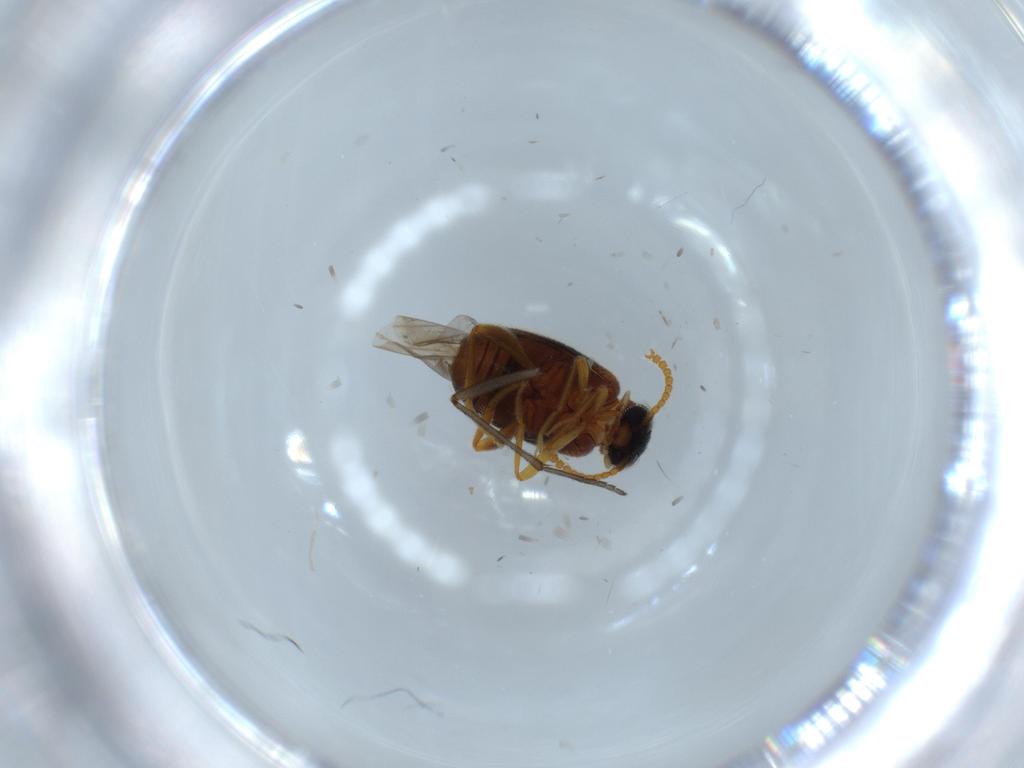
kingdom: Animalia
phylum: Arthropoda
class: Insecta
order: Coleoptera
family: Aderidae
